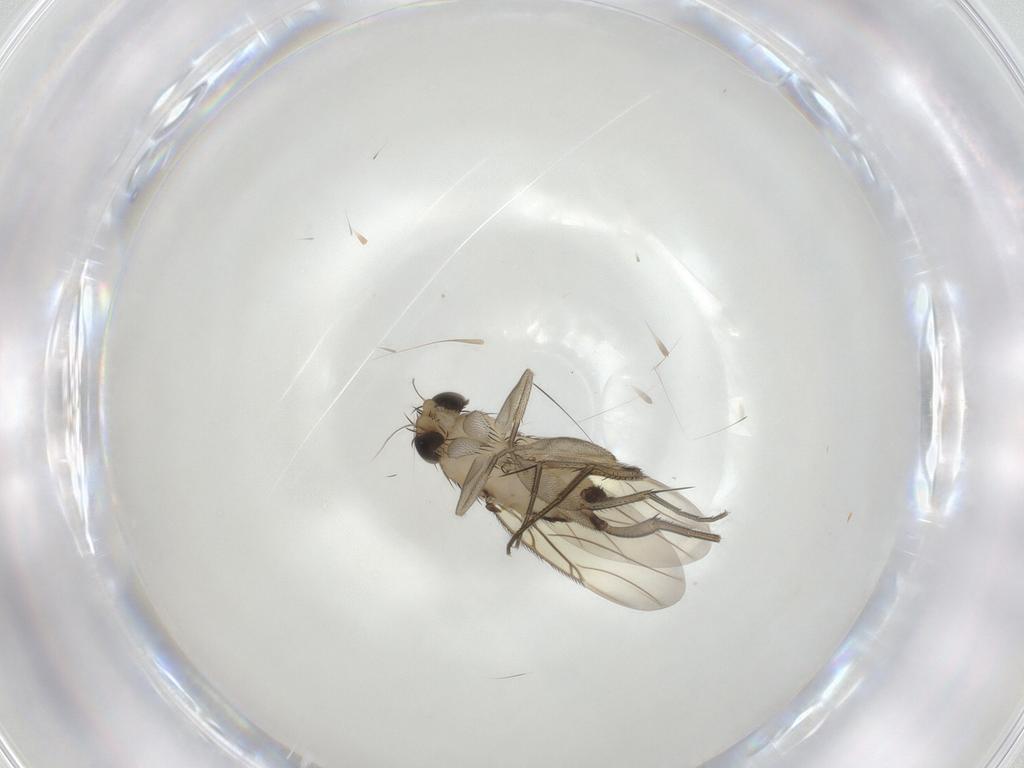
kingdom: Animalia
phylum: Arthropoda
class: Insecta
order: Diptera
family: Phoridae
